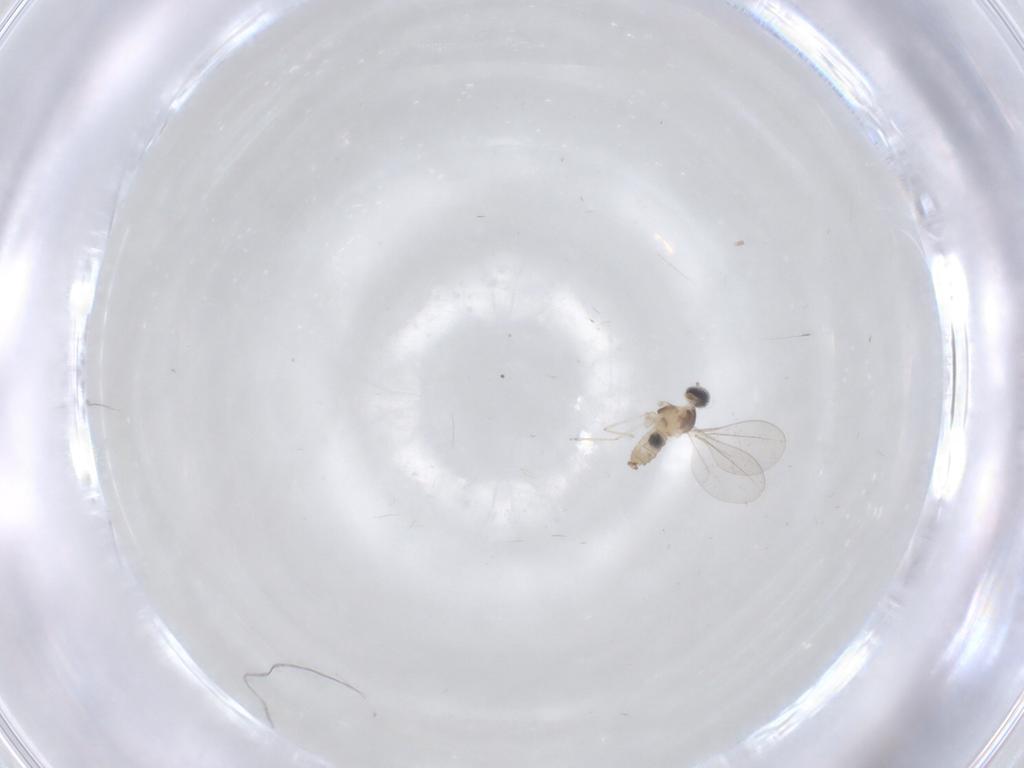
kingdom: Animalia
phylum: Arthropoda
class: Insecta
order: Diptera
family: Cecidomyiidae
